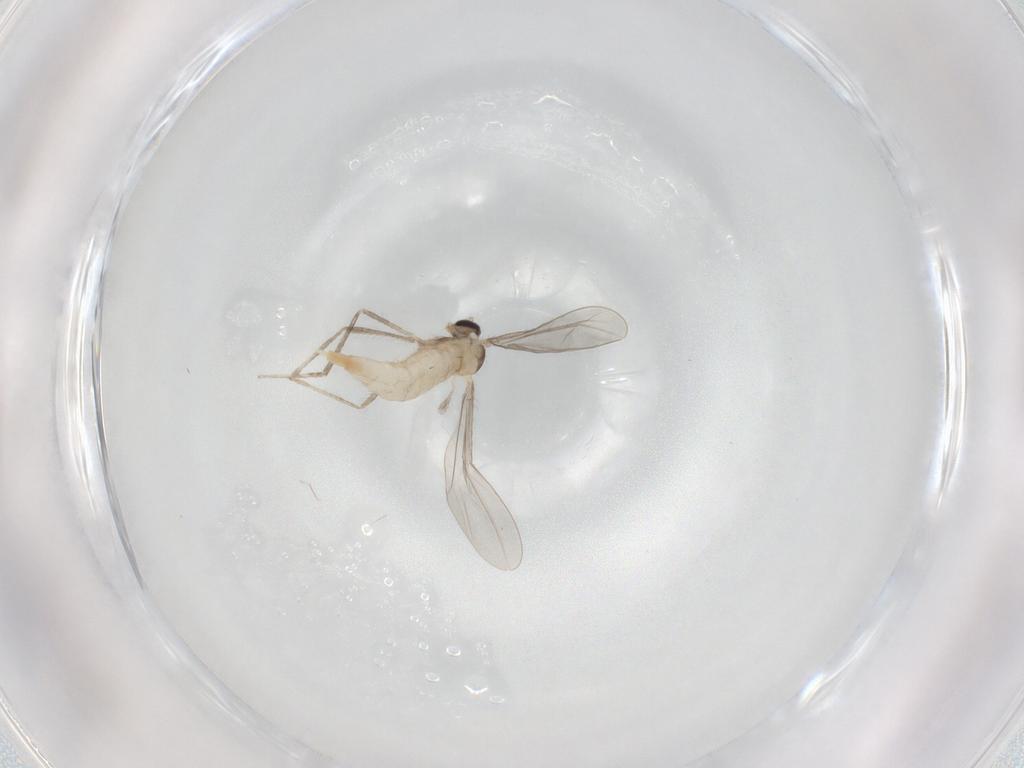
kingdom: Animalia
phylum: Arthropoda
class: Insecta
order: Diptera
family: Cecidomyiidae
